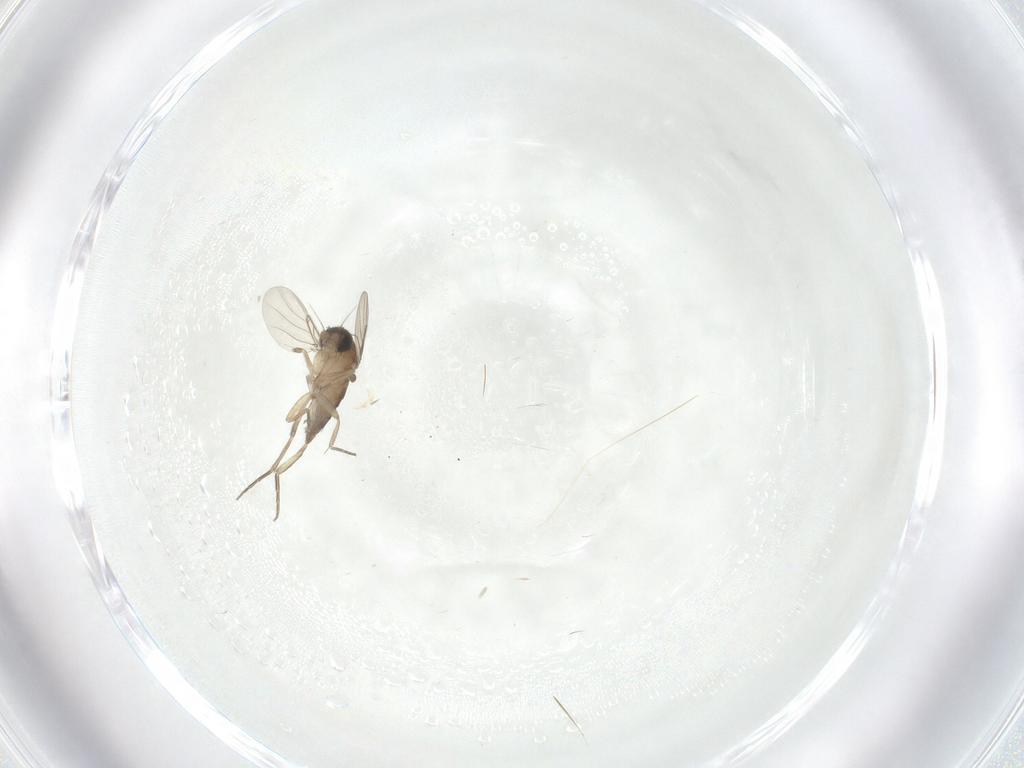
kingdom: Animalia
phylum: Arthropoda
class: Insecta
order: Diptera
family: Phoridae
